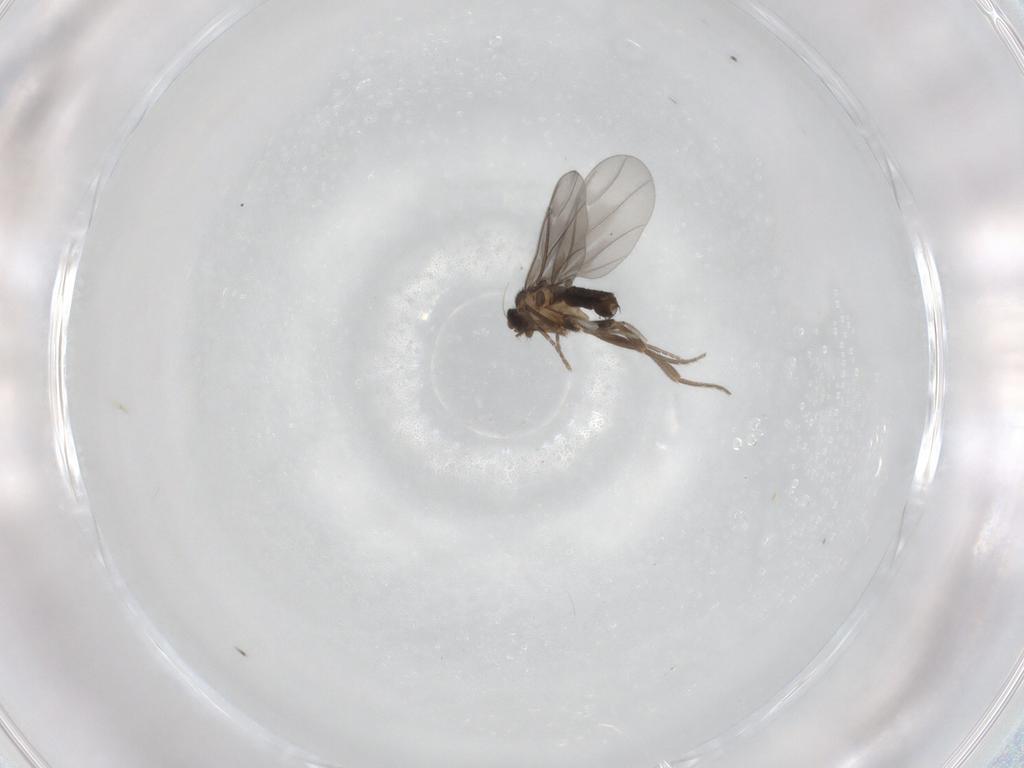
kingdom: Animalia
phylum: Arthropoda
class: Insecta
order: Diptera
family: Phoridae
